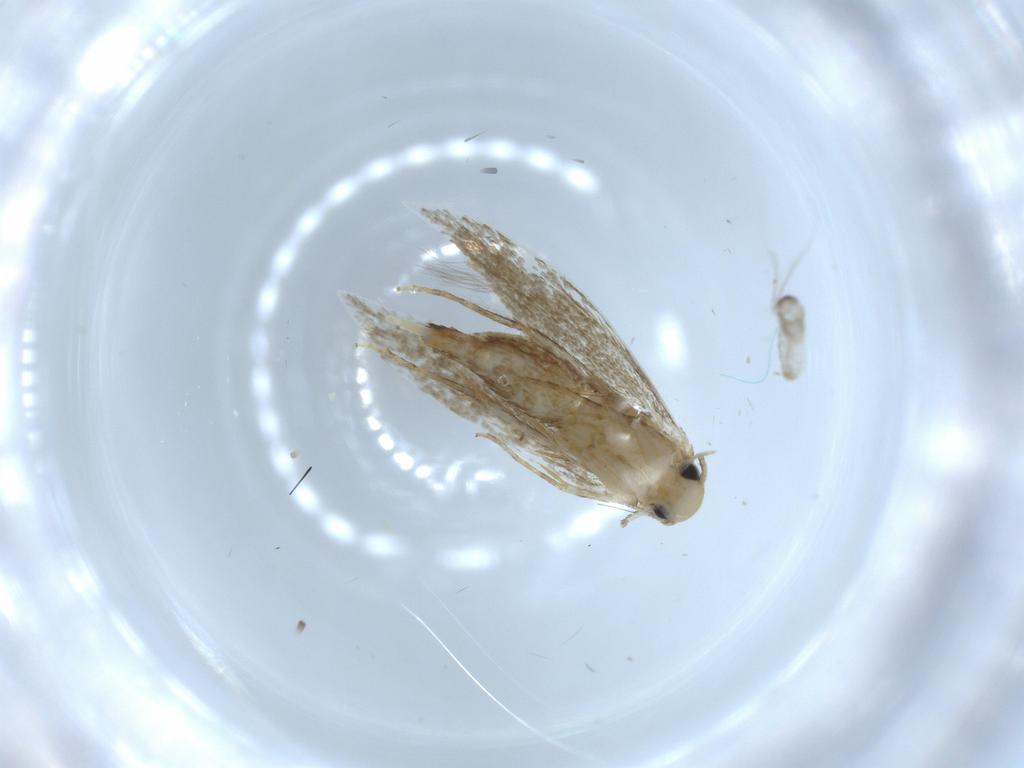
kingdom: Animalia
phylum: Arthropoda
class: Insecta
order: Lepidoptera
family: Tineidae
